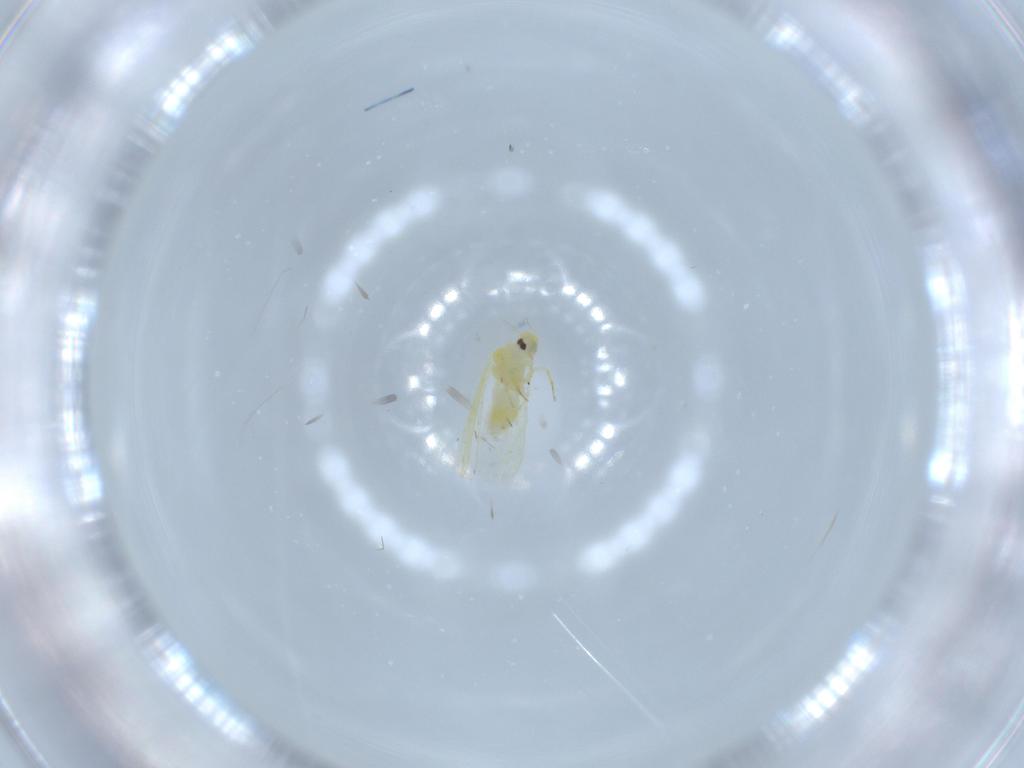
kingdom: Animalia
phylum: Arthropoda
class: Insecta
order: Hemiptera
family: Aleyrodidae
